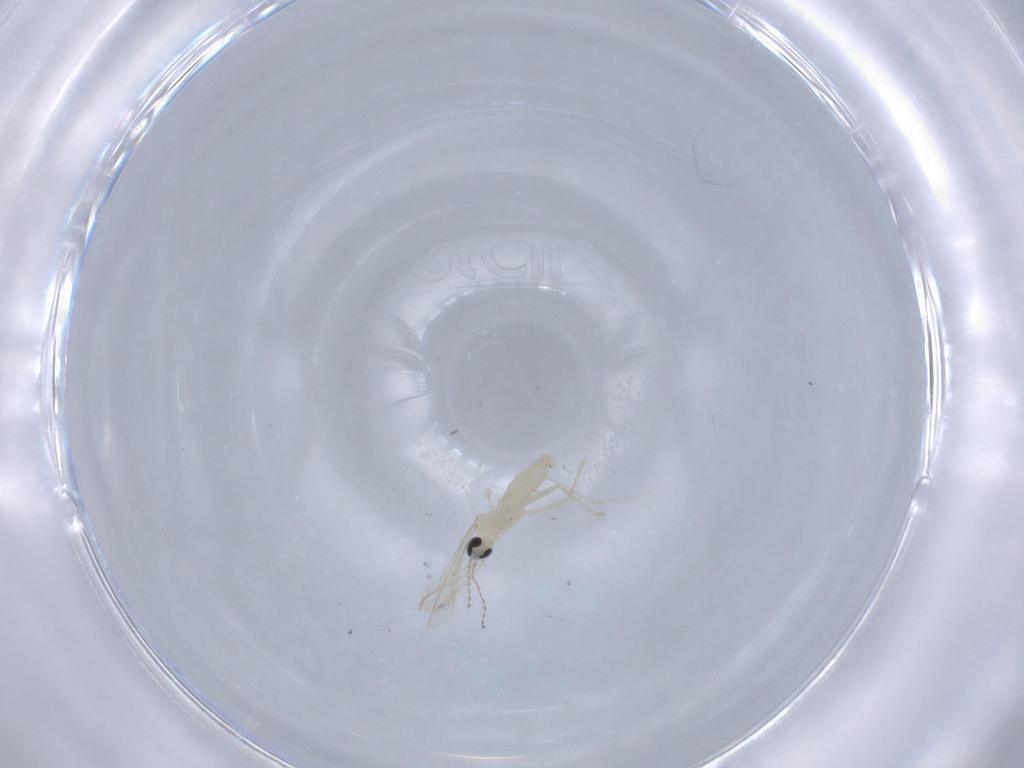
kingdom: Animalia
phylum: Arthropoda
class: Insecta
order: Diptera
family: Cecidomyiidae
